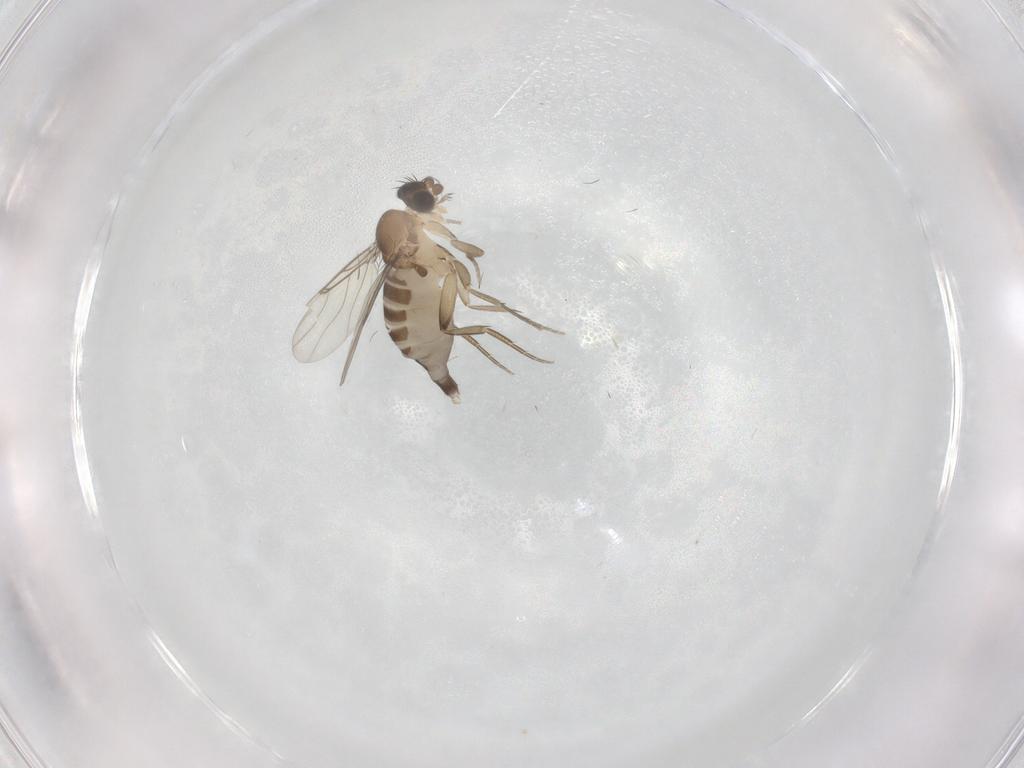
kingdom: Animalia
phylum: Arthropoda
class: Insecta
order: Diptera
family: Phoridae
